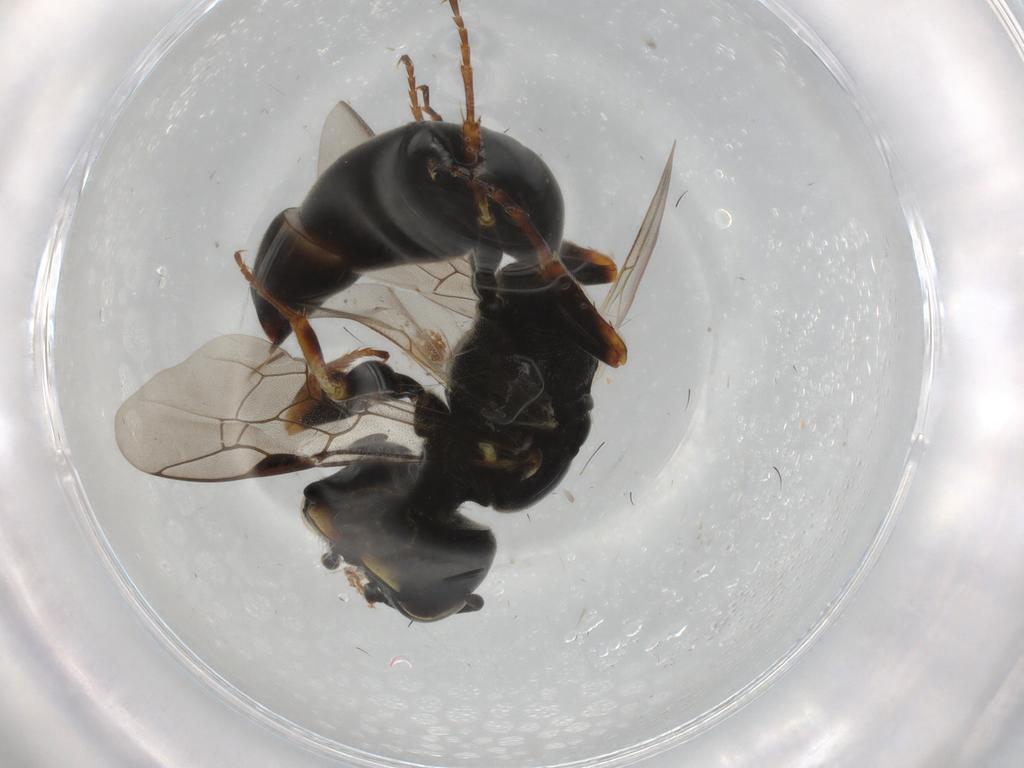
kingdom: Animalia
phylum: Arthropoda
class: Insecta
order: Hymenoptera
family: Crabronidae
